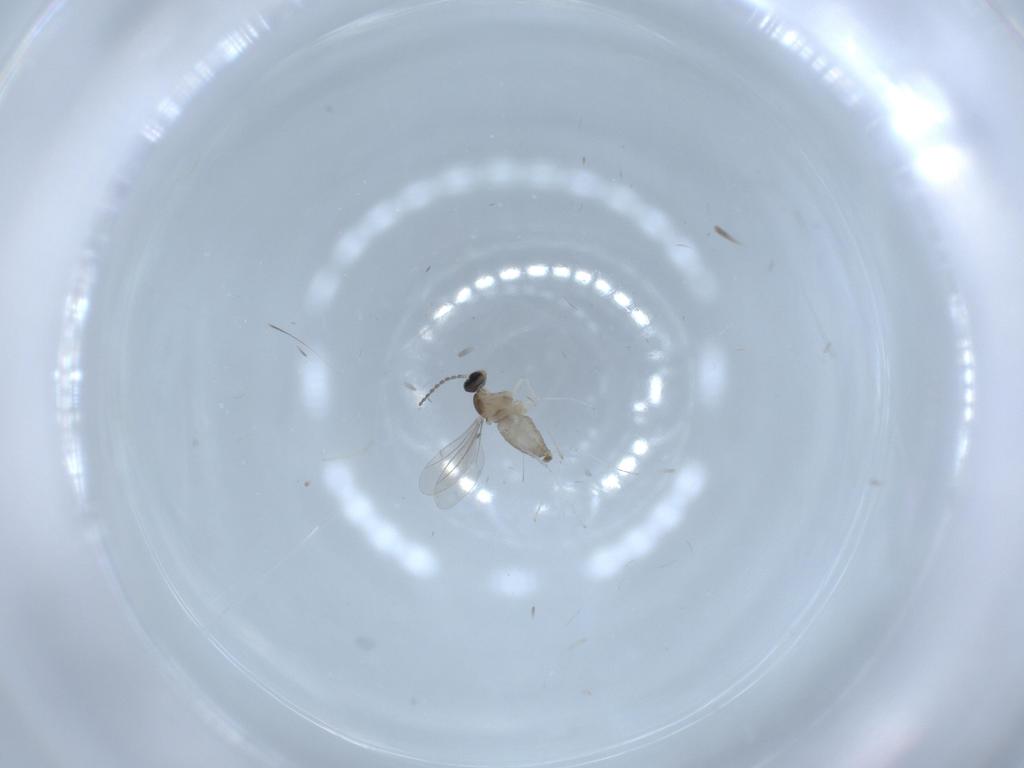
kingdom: Animalia
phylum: Arthropoda
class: Insecta
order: Diptera
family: Cecidomyiidae
